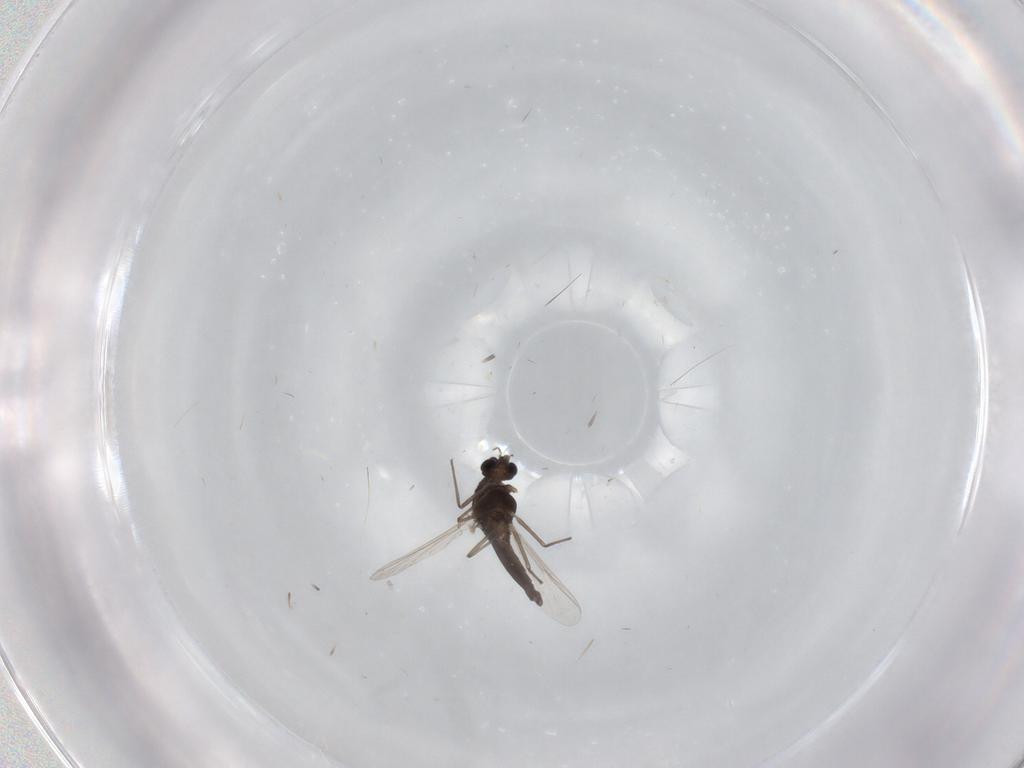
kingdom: Animalia
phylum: Arthropoda
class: Insecta
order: Diptera
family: Chironomidae
